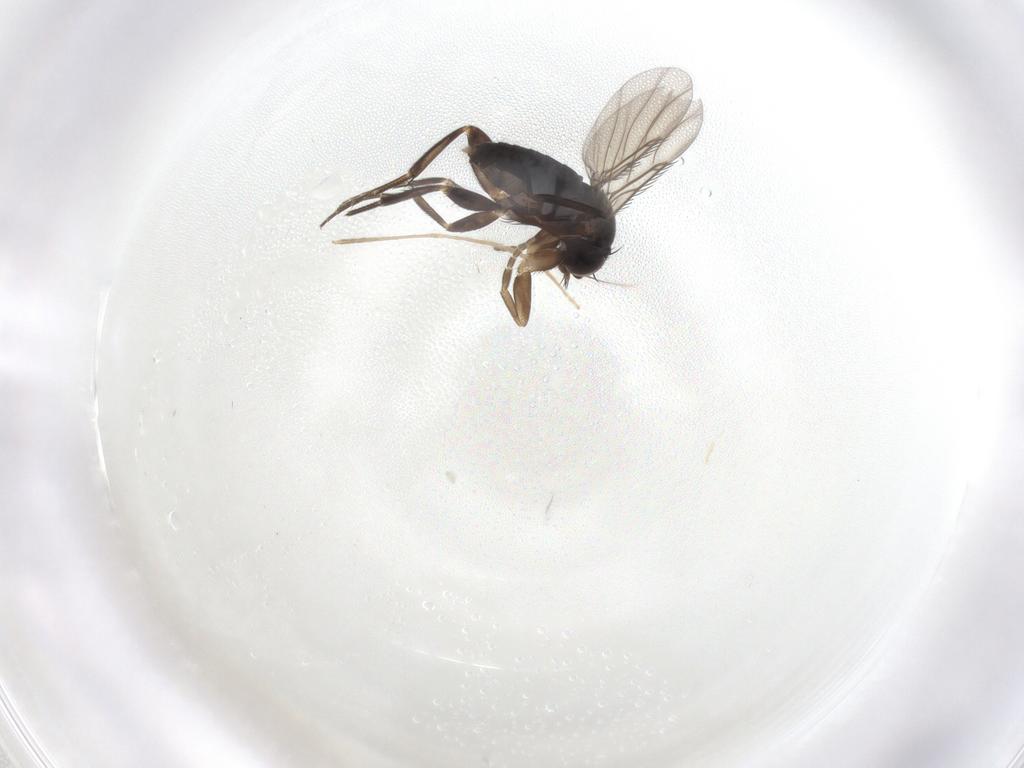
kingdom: Animalia
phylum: Arthropoda
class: Insecta
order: Diptera
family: Phoridae
